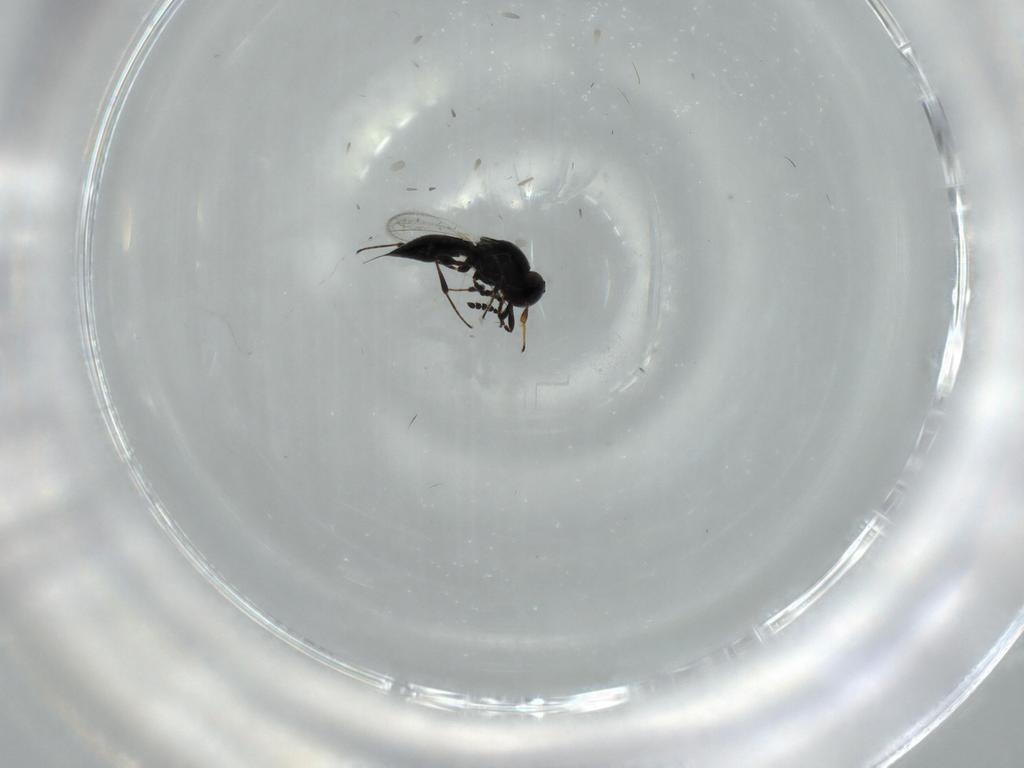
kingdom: Animalia
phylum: Arthropoda
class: Insecta
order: Hymenoptera
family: Platygastridae
